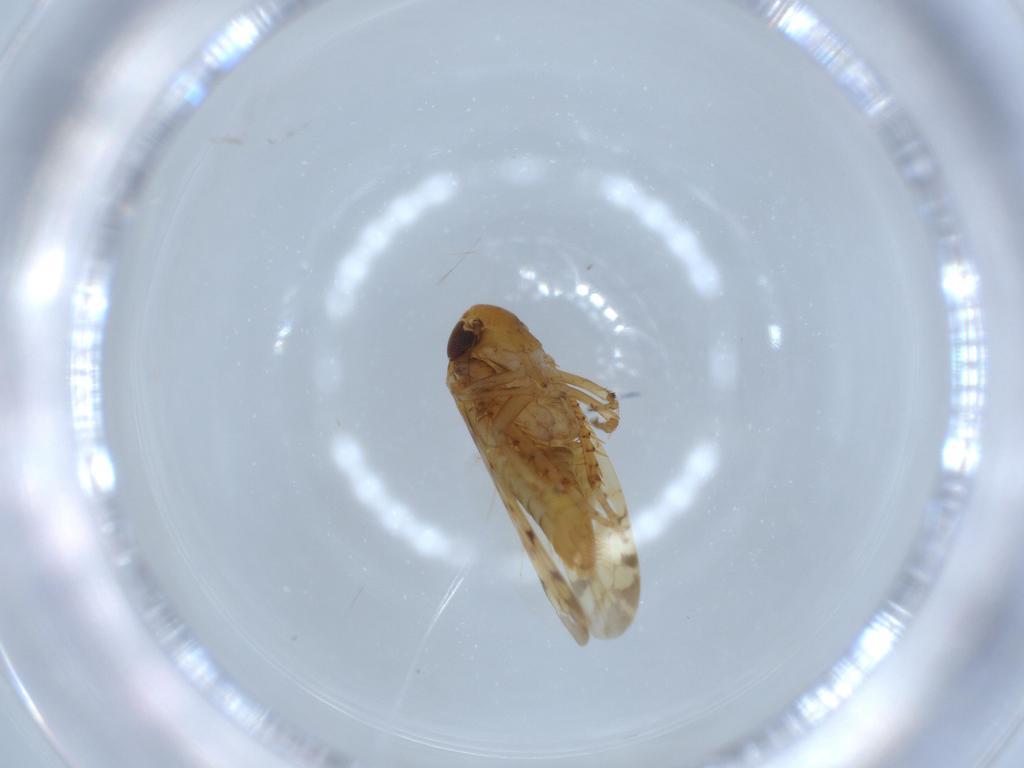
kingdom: Animalia
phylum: Arthropoda
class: Insecta
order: Hemiptera
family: Cicadellidae
